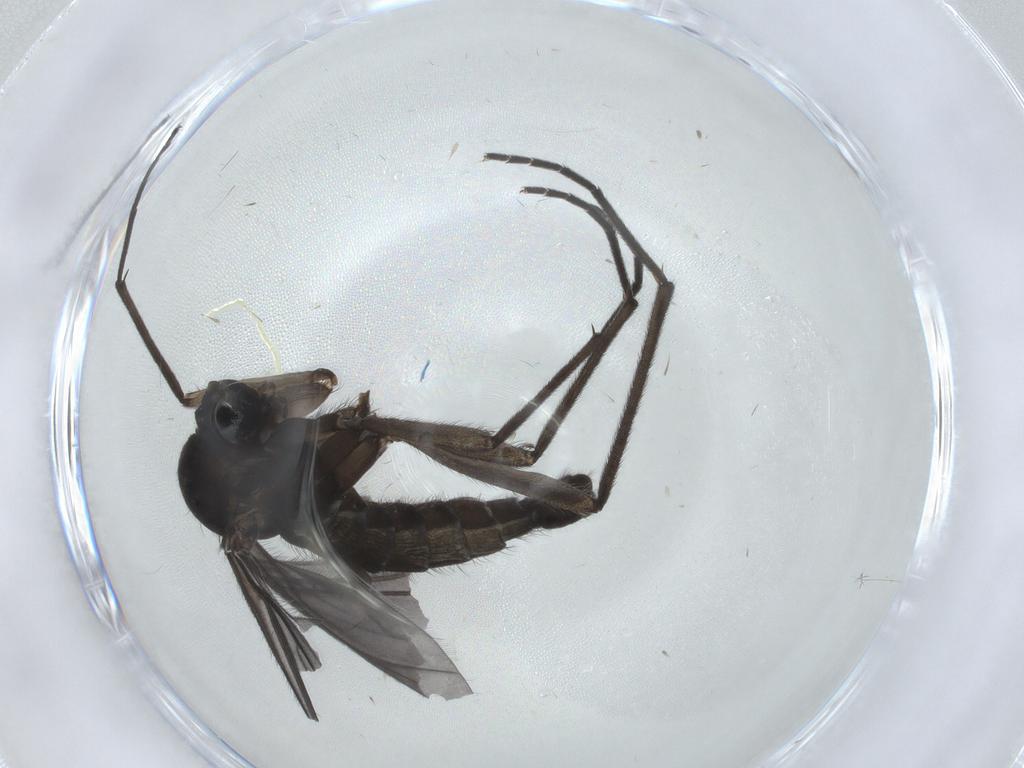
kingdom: Animalia
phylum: Arthropoda
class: Insecta
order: Diptera
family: Sciaridae
